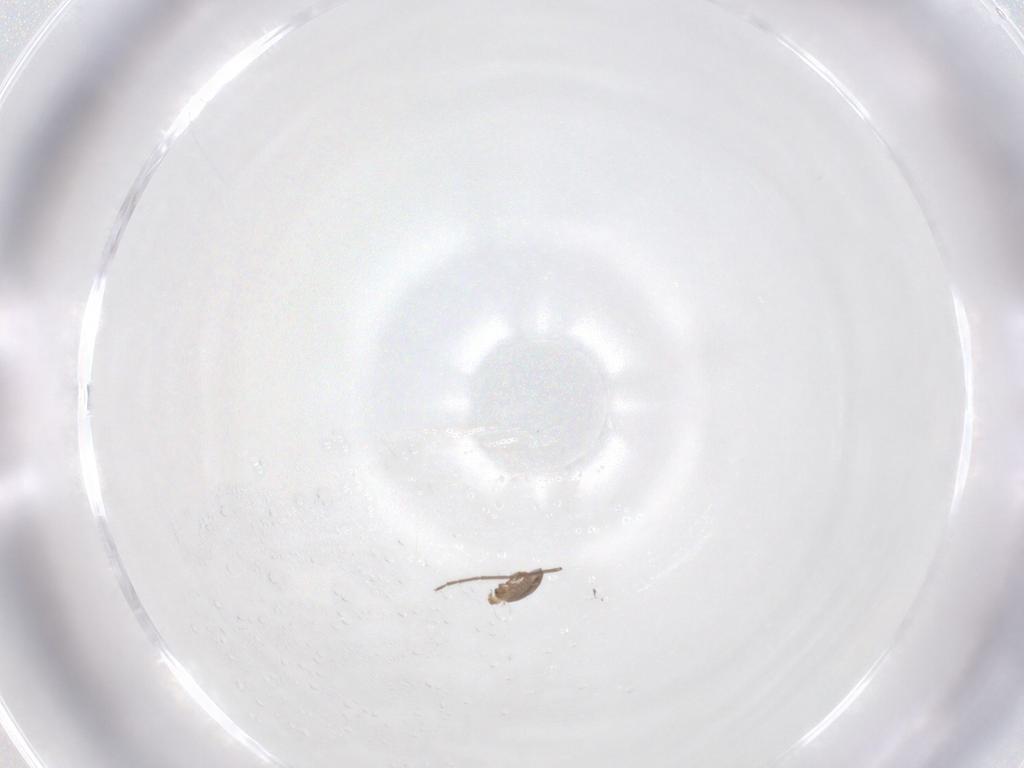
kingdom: Animalia
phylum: Arthropoda
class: Arachnida
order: Sarcoptiformes
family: Humerobatidae
